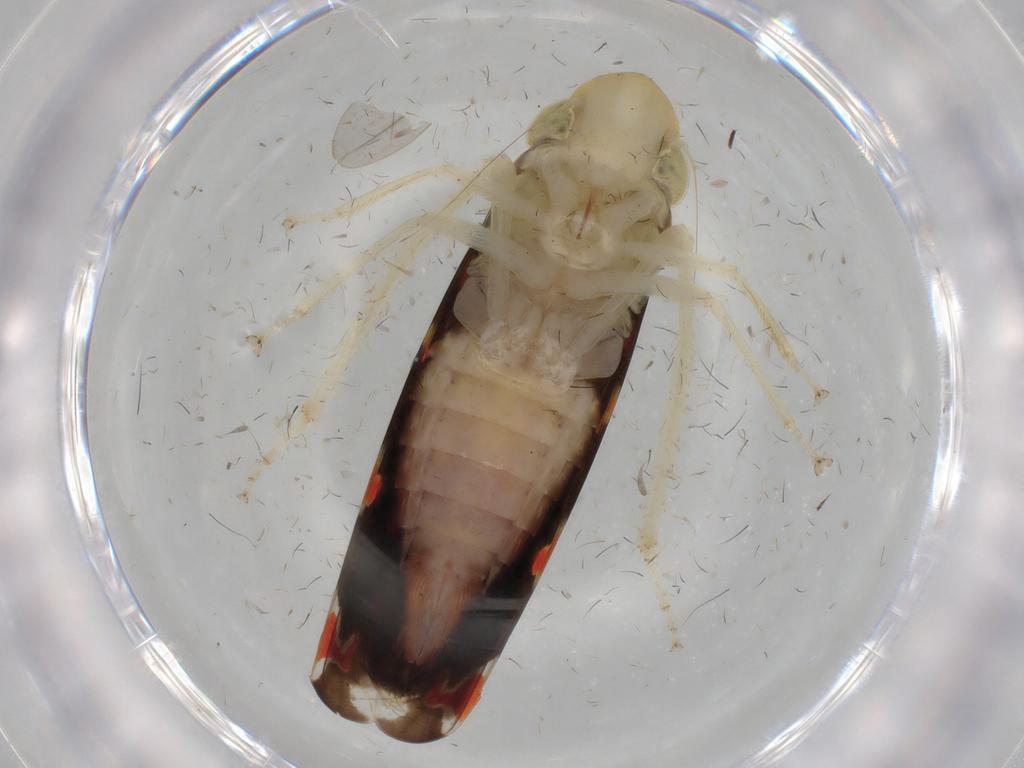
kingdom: Animalia
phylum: Arthropoda
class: Insecta
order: Hemiptera
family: Cicadellidae
